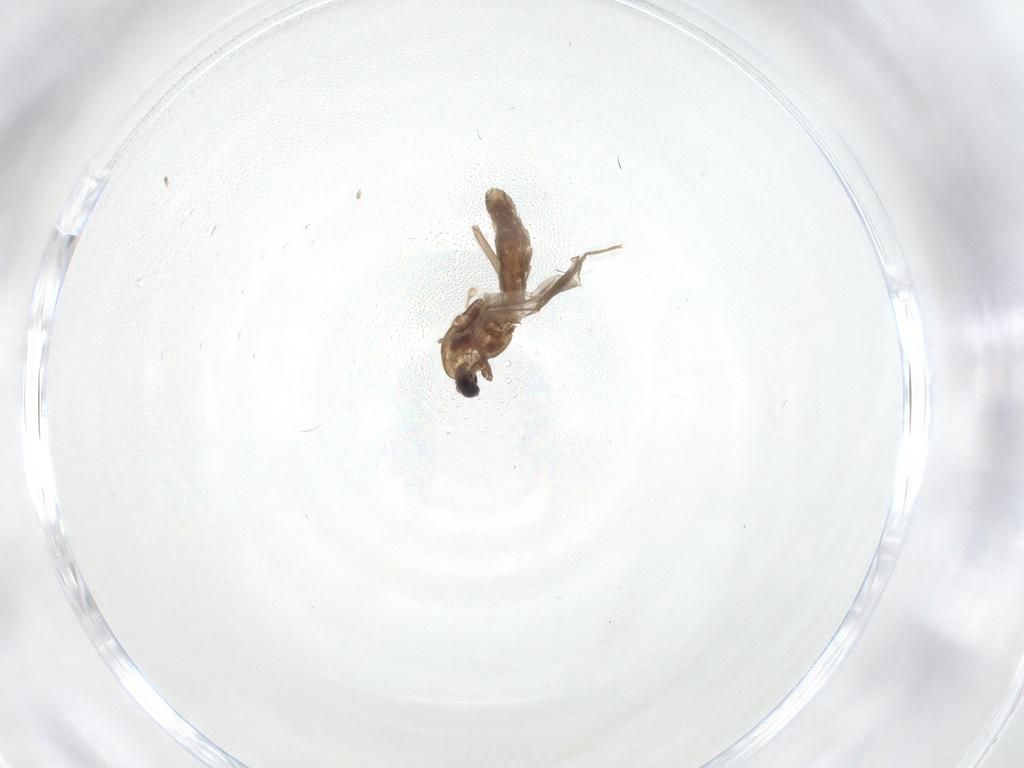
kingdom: Animalia
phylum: Arthropoda
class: Insecta
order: Diptera
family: Chironomidae
